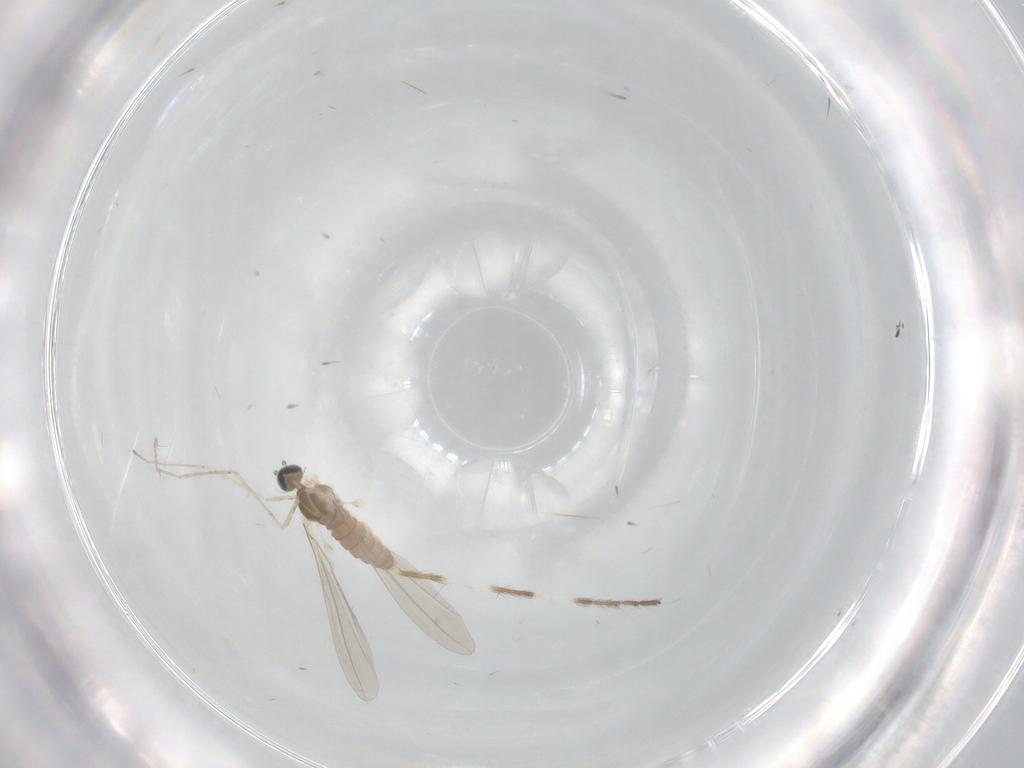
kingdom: Animalia
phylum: Arthropoda
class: Insecta
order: Diptera
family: Limoniidae
